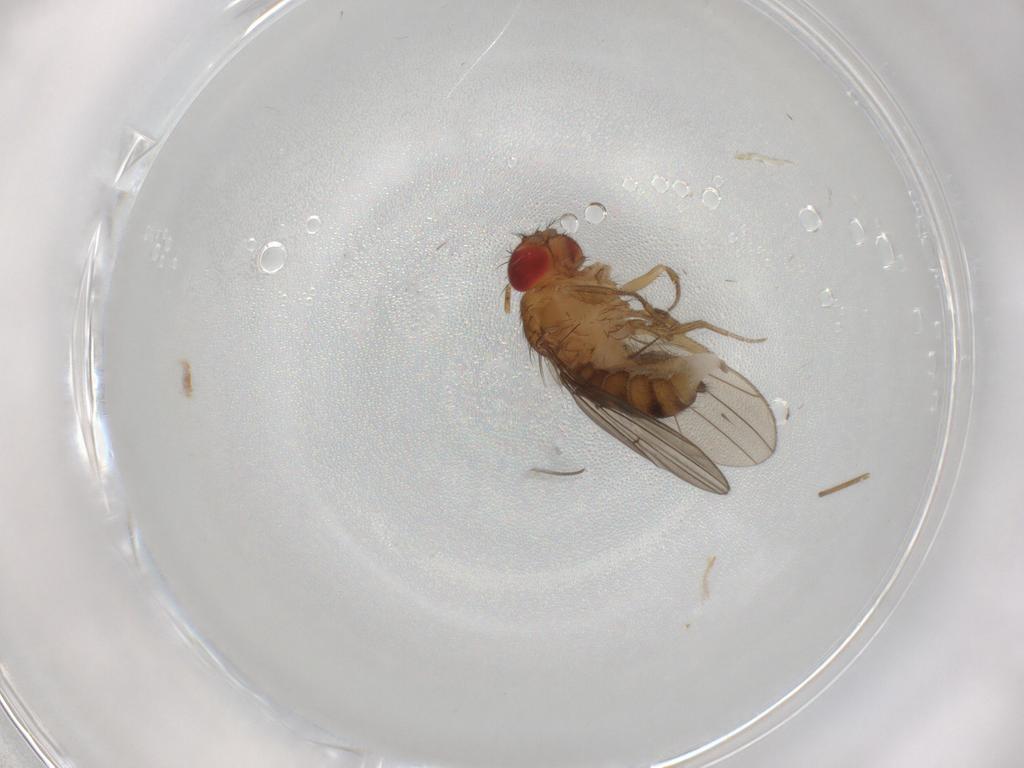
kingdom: Animalia
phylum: Arthropoda
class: Insecta
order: Diptera
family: Drosophilidae
